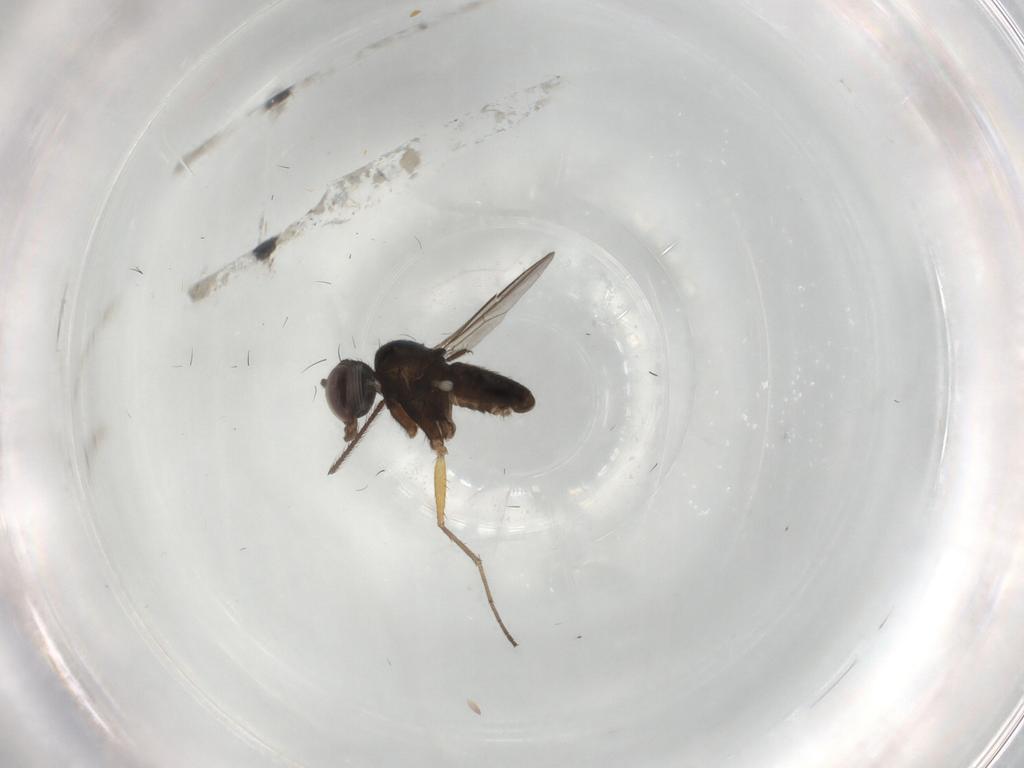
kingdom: Animalia
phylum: Arthropoda
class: Insecta
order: Diptera
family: Dolichopodidae
